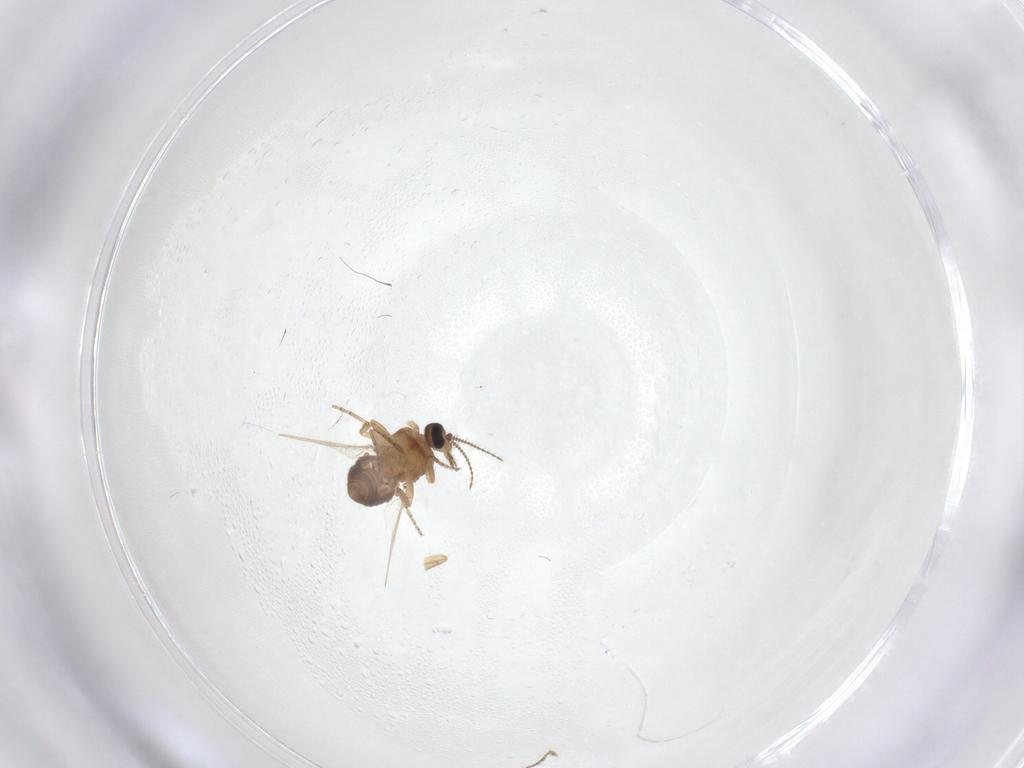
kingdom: Animalia
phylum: Arthropoda
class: Insecta
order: Diptera
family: Ceratopogonidae
